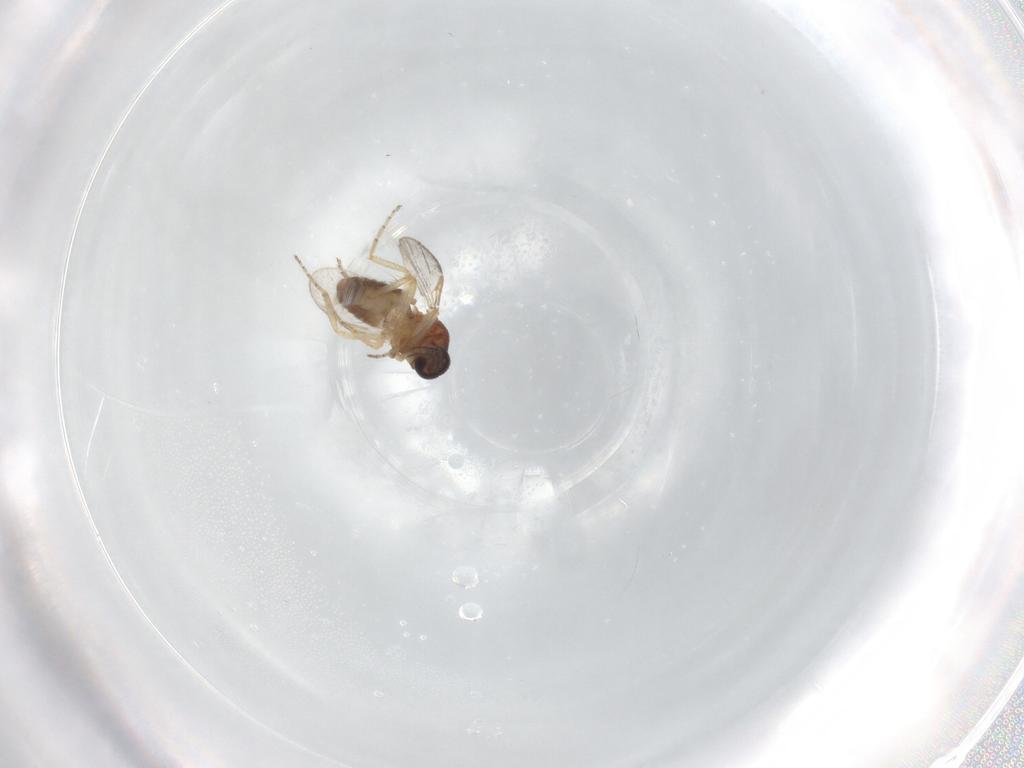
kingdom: Animalia
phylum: Arthropoda
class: Insecta
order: Diptera
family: Ceratopogonidae
